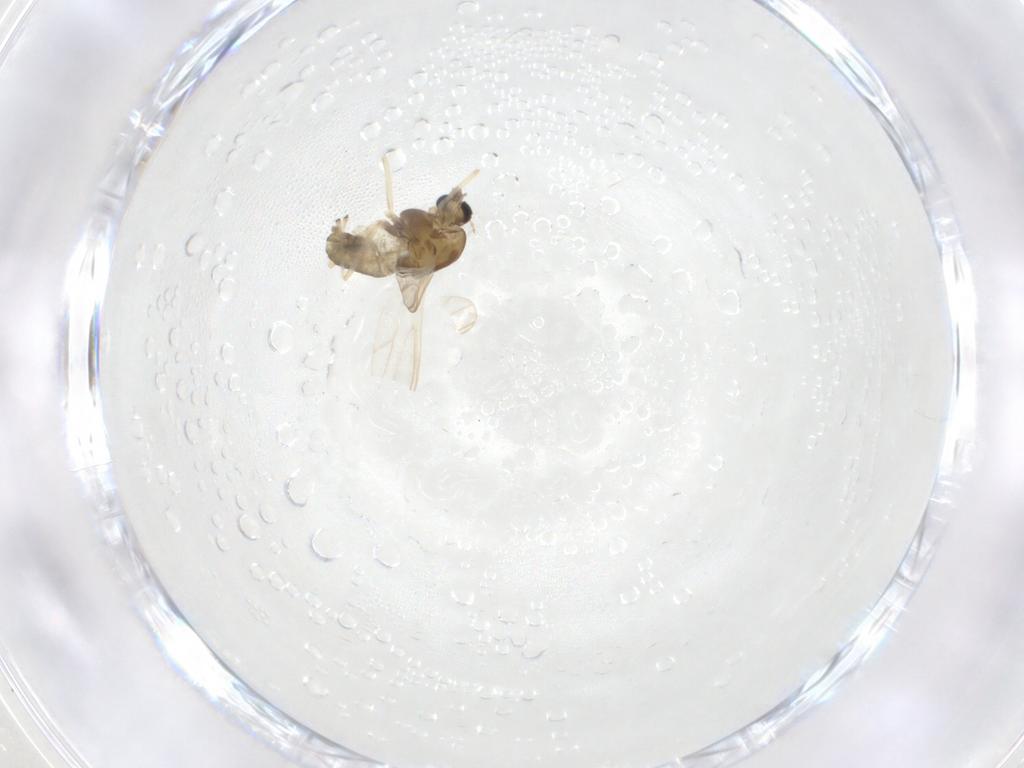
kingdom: Animalia
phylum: Arthropoda
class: Insecta
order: Diptera
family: Chironomidae
